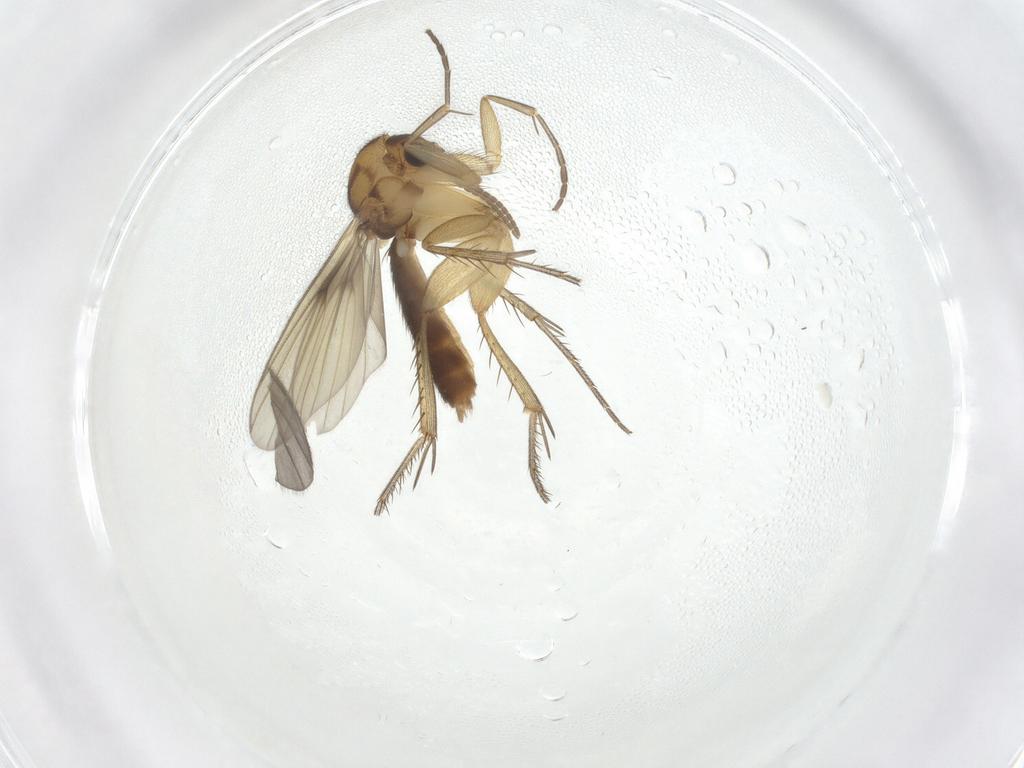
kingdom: Animalia
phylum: Arthropoda
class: Insecta
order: Diptera
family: Mycetophilidae
